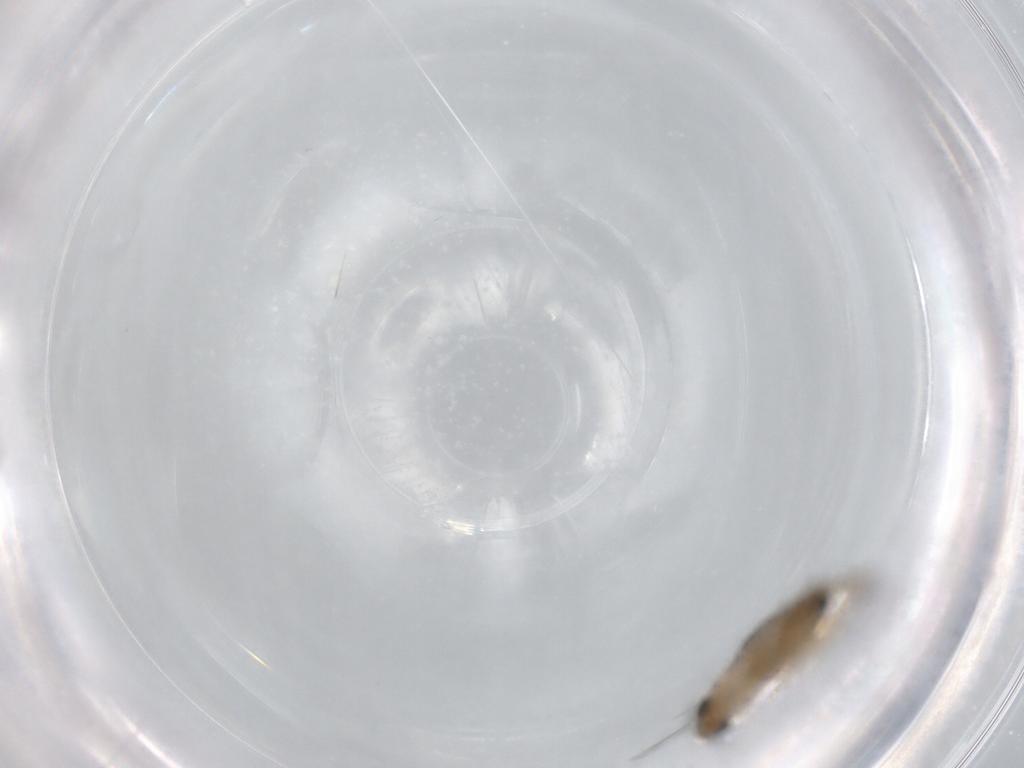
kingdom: Animalia
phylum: Arthropoda
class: Insecta
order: Diptera
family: Phoridae
